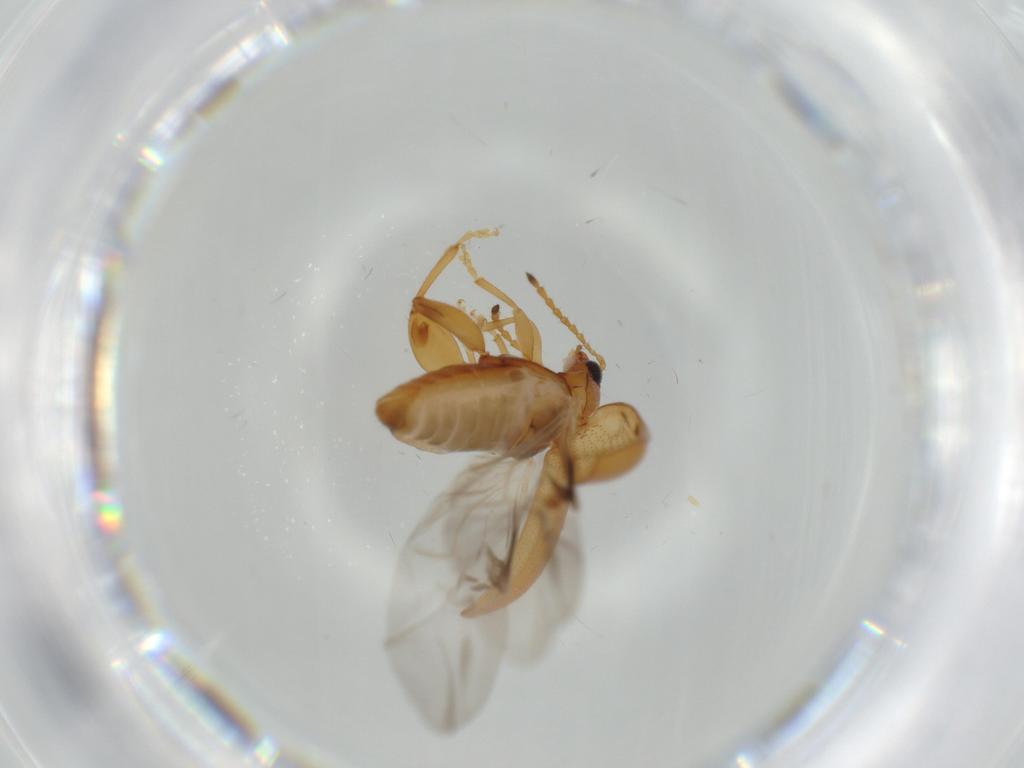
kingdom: Animalia
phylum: Arthropoda
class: Insecta
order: Coleoptera
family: Chrysomelidae
